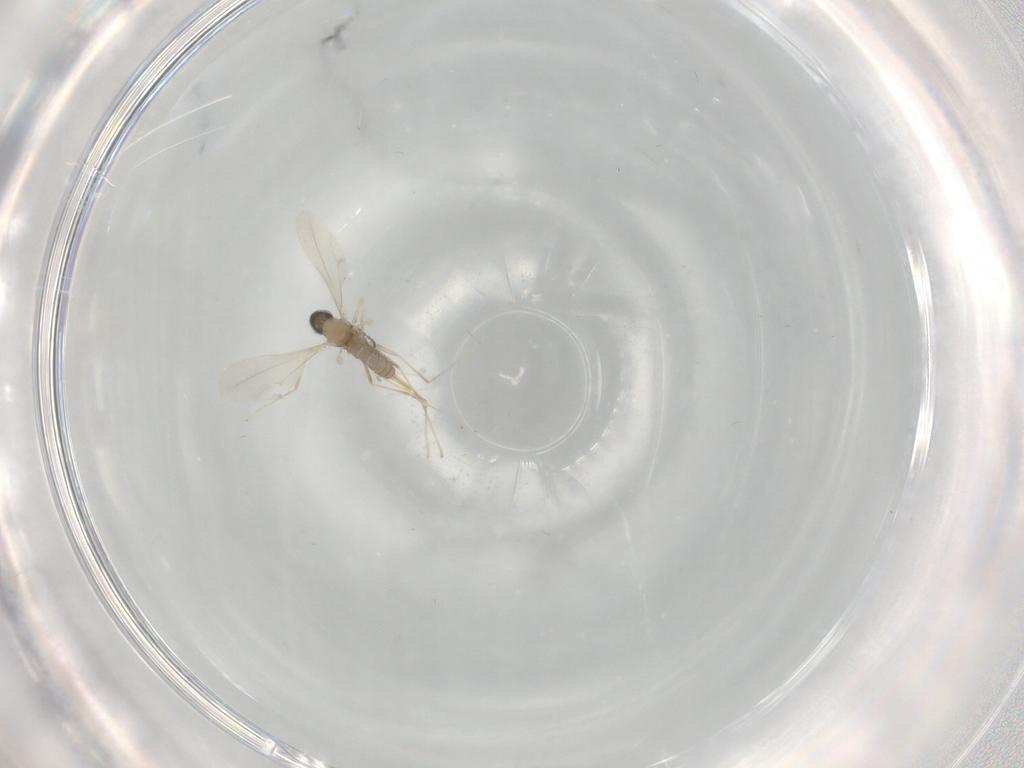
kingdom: Animalia
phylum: Arthropoda
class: Insecta
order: Diptera
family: Cecidomyiidae
